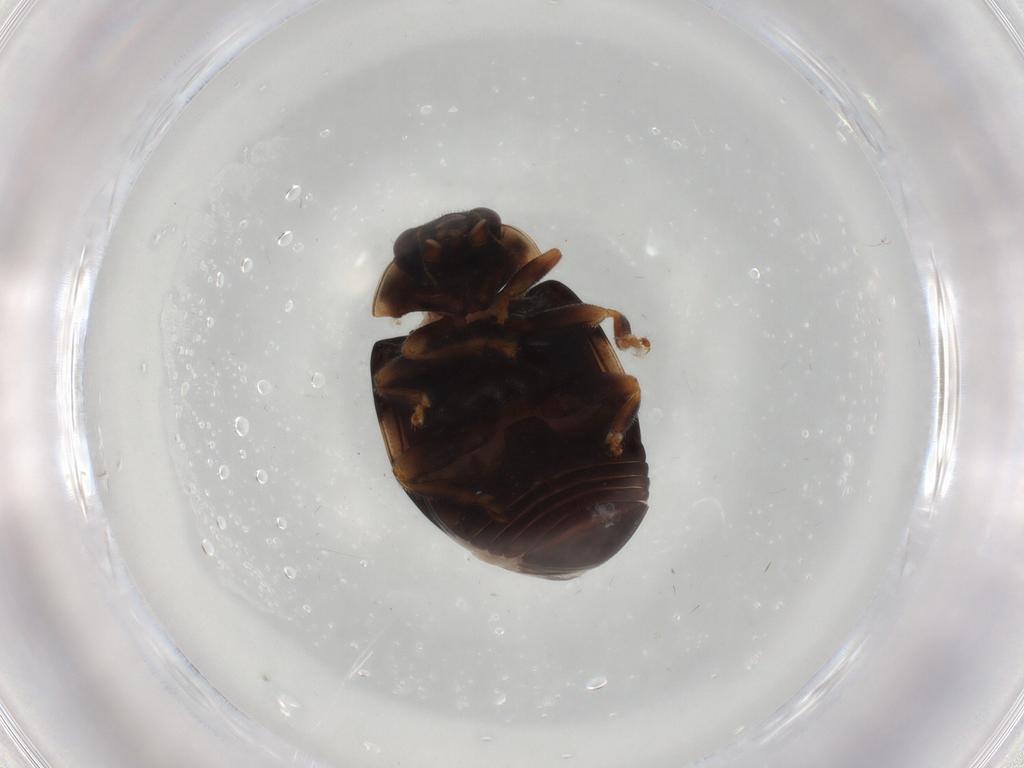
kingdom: Animalia
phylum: Arthropoda
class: Insecta
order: Coleoptera
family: Coccinellidae
